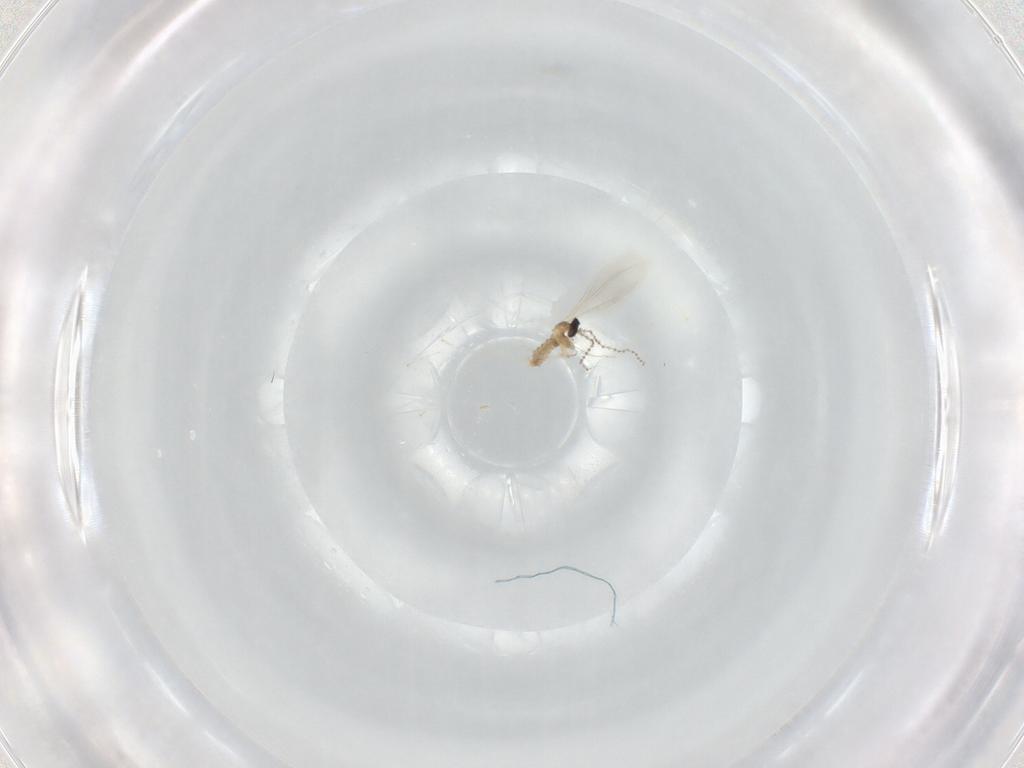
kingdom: Animalia
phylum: Arthropoda
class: Insecta
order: Diptera
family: Cecidomyiidae
